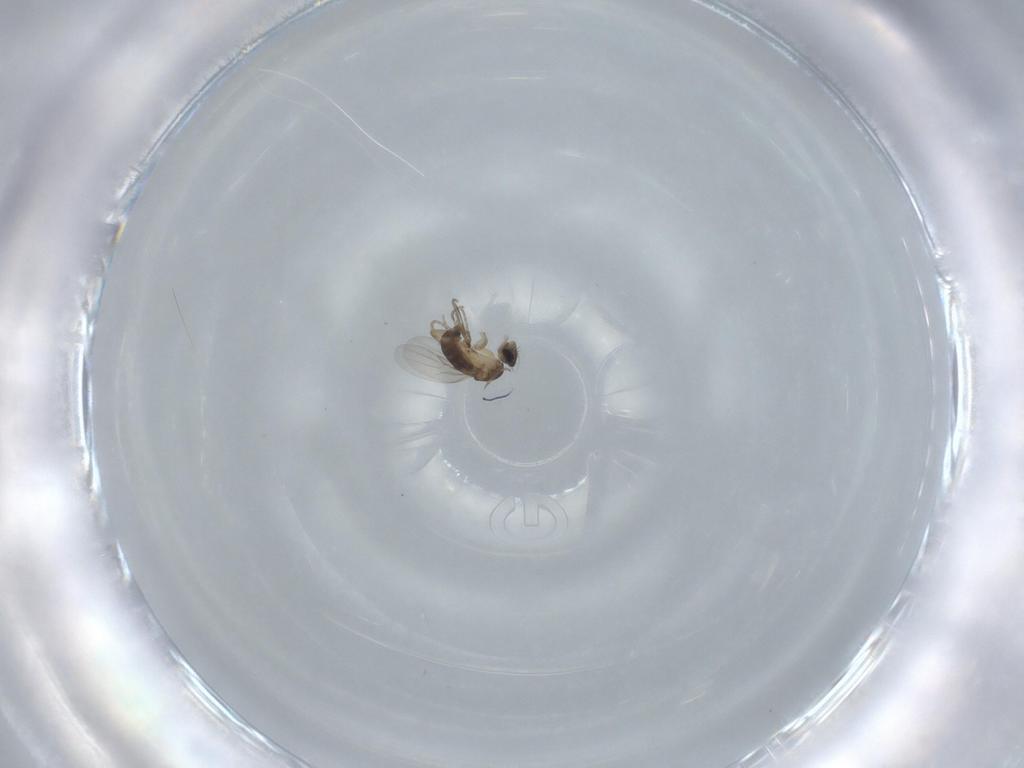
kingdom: Animalia
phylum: Arthropoda
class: Insecta
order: Diptera
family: Phoridae
